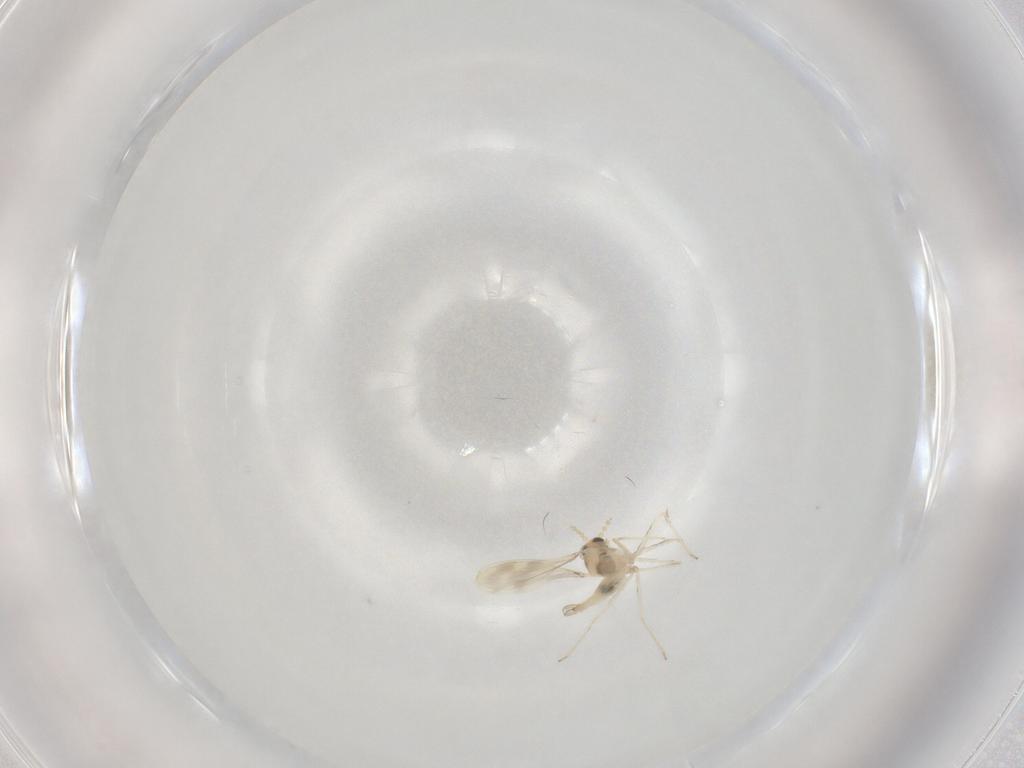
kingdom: Animalia
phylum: Arthropoda
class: Insecta
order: Diptera
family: Cecidomyiidae
